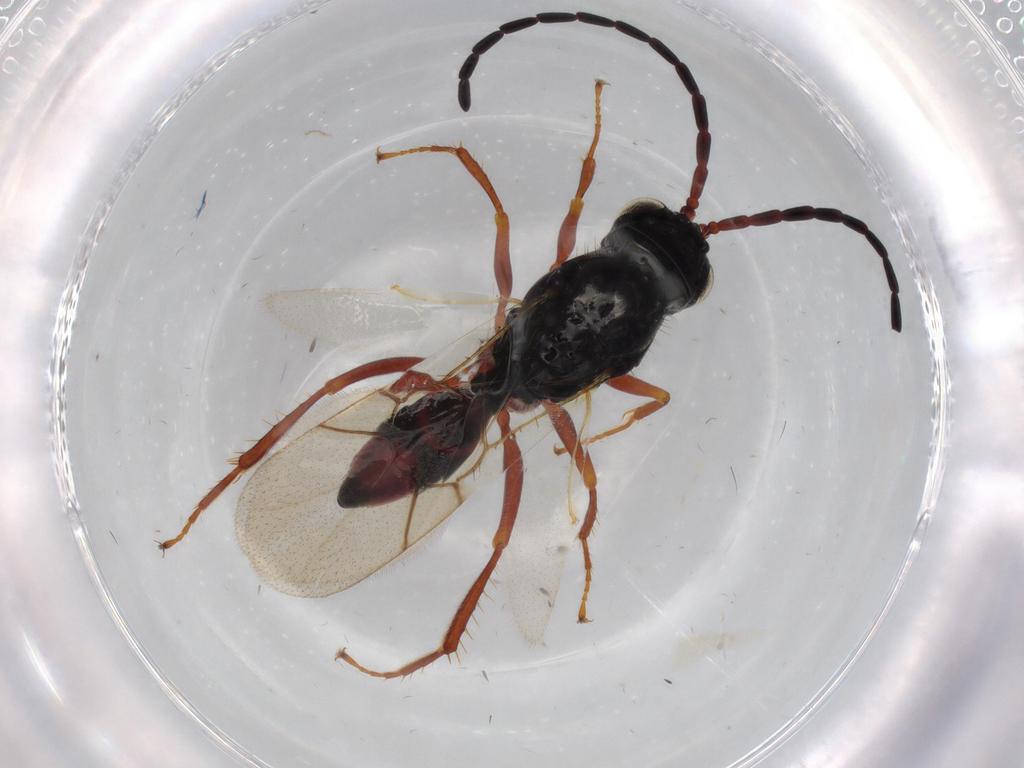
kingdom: Animalia
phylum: Arthropoda
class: Insecta
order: Hymenoptera
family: Figitidae
